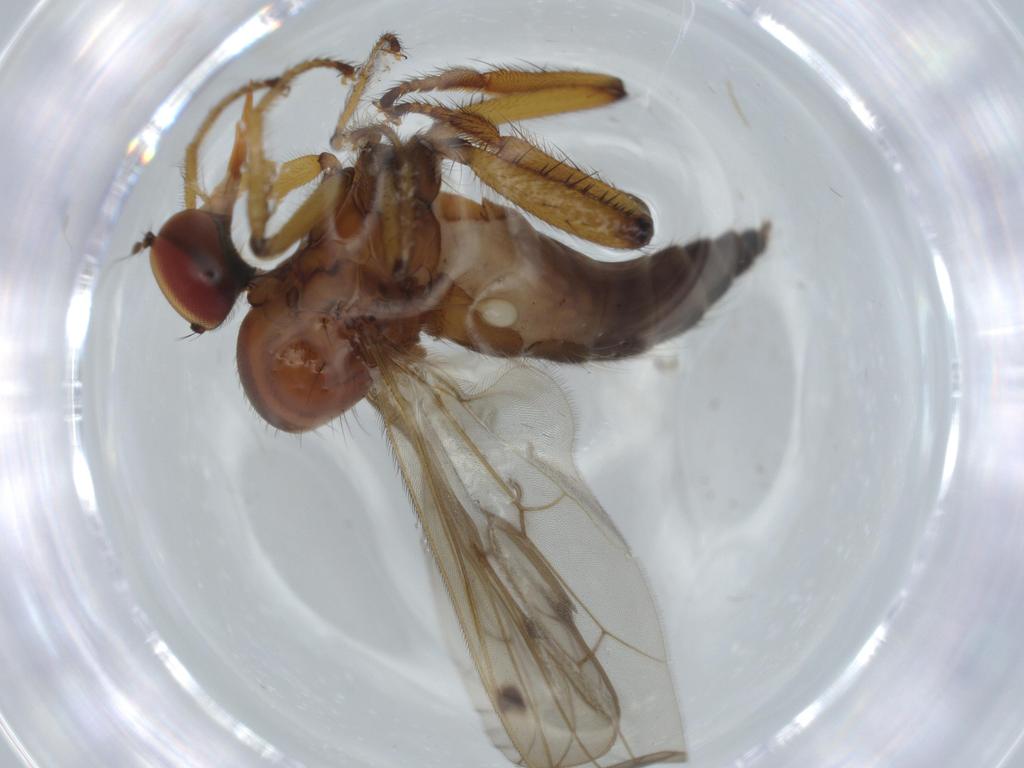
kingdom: Animalia
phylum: Arthropoda
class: Insecta
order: Diptera
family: Hybotidae
